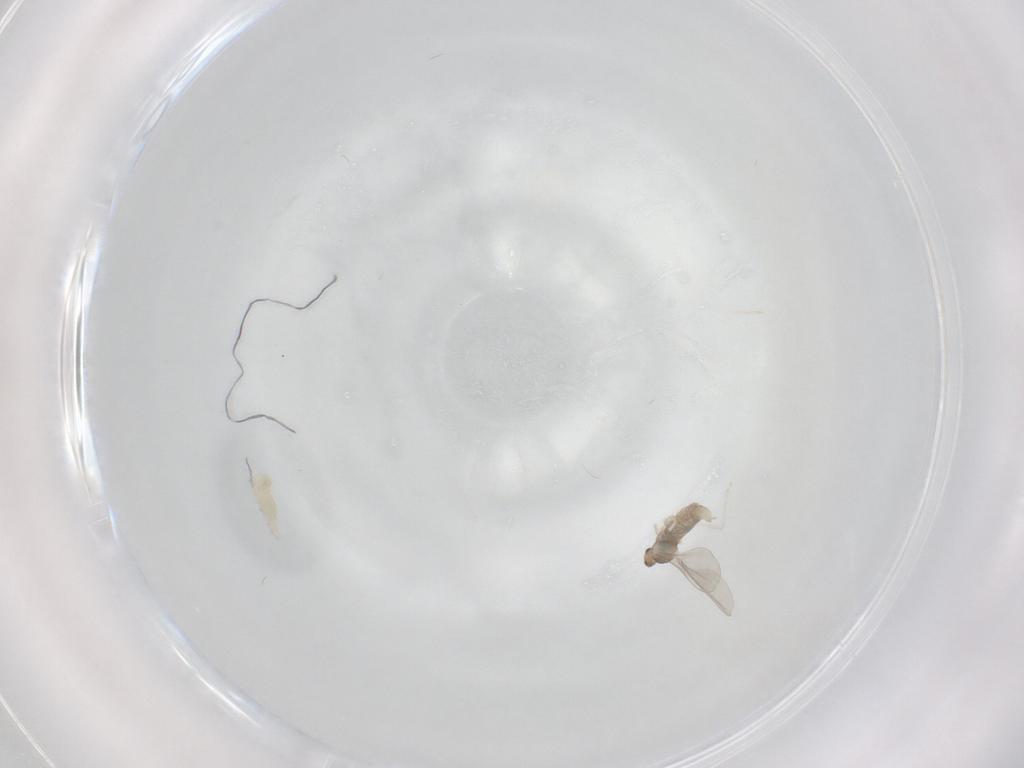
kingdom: Animalia
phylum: Arthropoda
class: Insecta
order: Diptera
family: Cecidomyiidae
